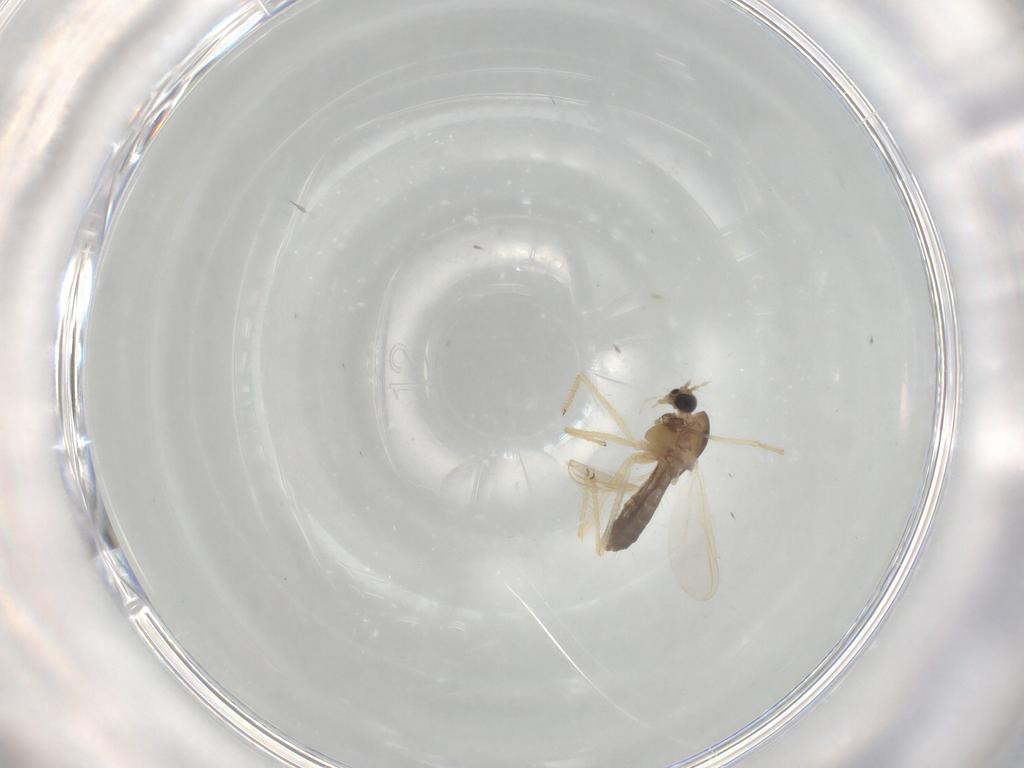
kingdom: Animalia
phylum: Arthropoda
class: Insecta
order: Diptera
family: Chironomidae
